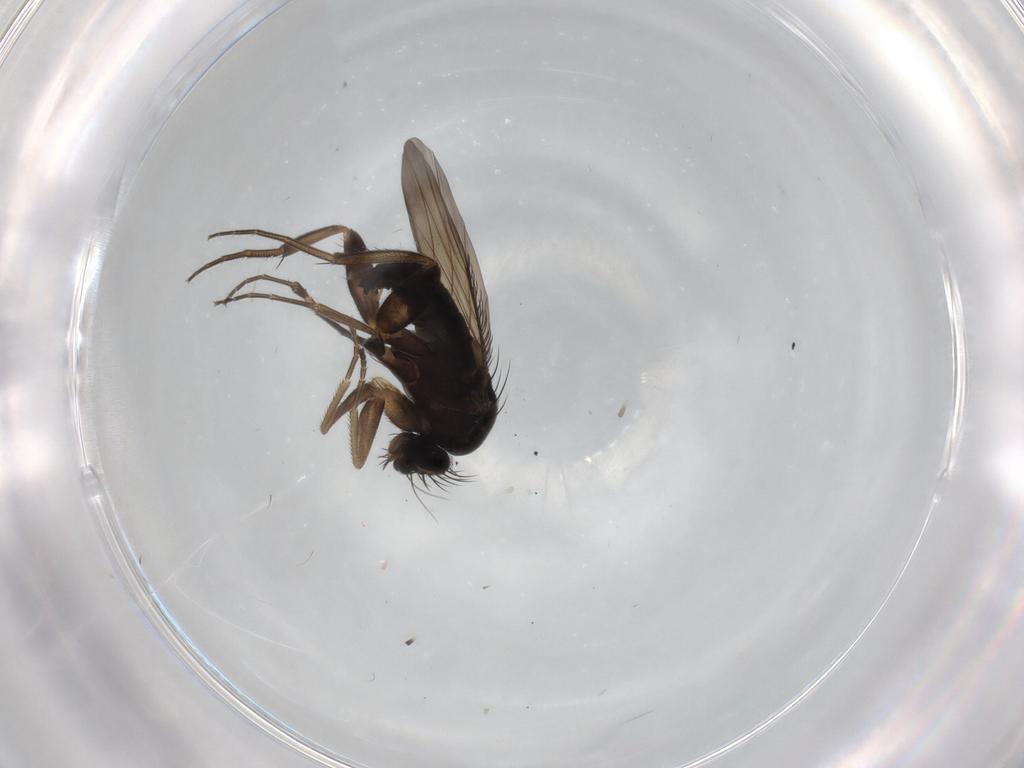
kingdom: Animalia
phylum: Arthropoda
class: Insecta
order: Diptera
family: Phoridae
